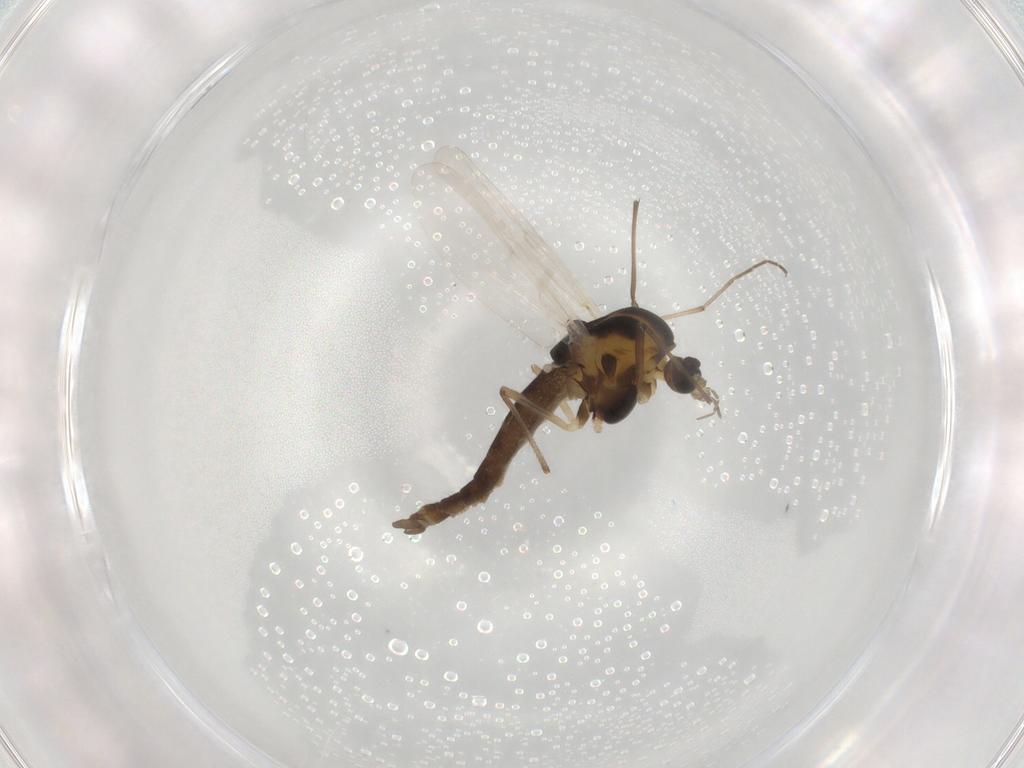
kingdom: Animalia
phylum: Arthropoda
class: Insecta
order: Diptera
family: Chironomidae
